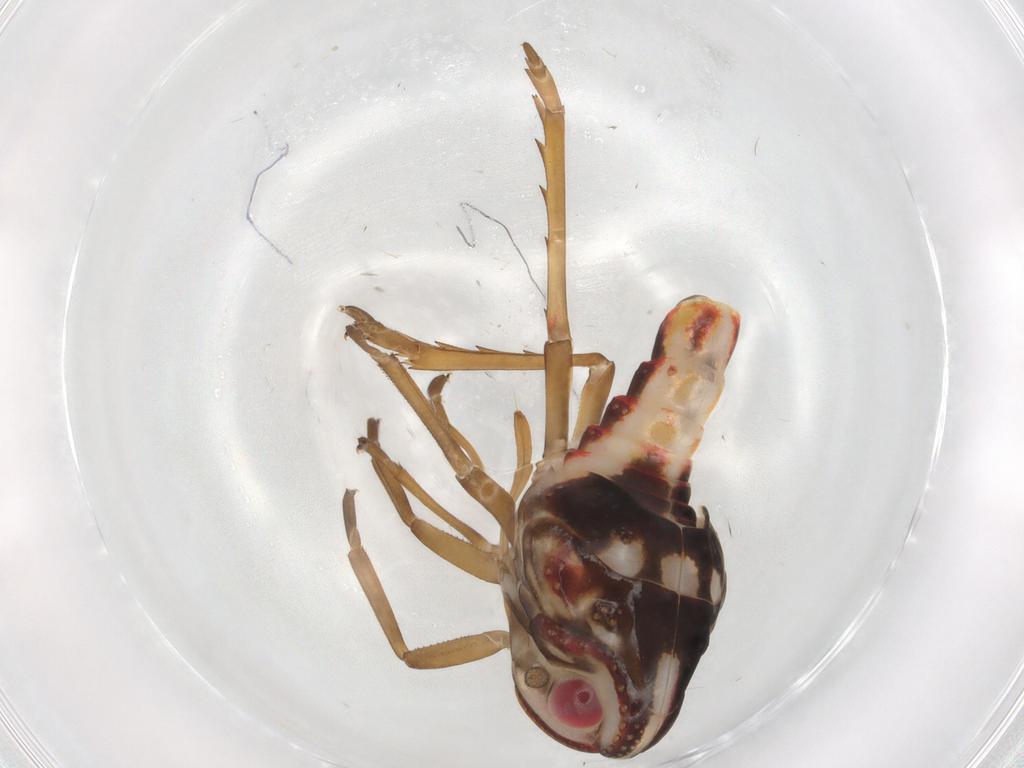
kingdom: Animalia
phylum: Arthropoda
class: Insecta
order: Hemiptera
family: Nogodinidae
